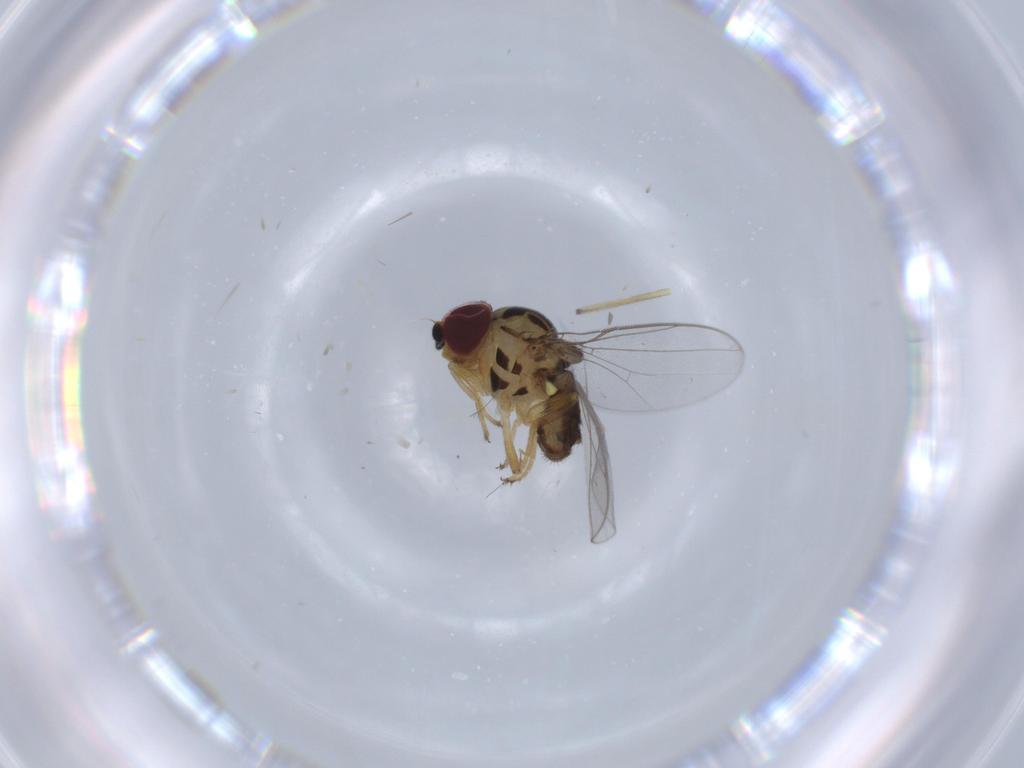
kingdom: Animalia
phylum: Arthropoda
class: Insecta
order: Diptera
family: Chloropidae
